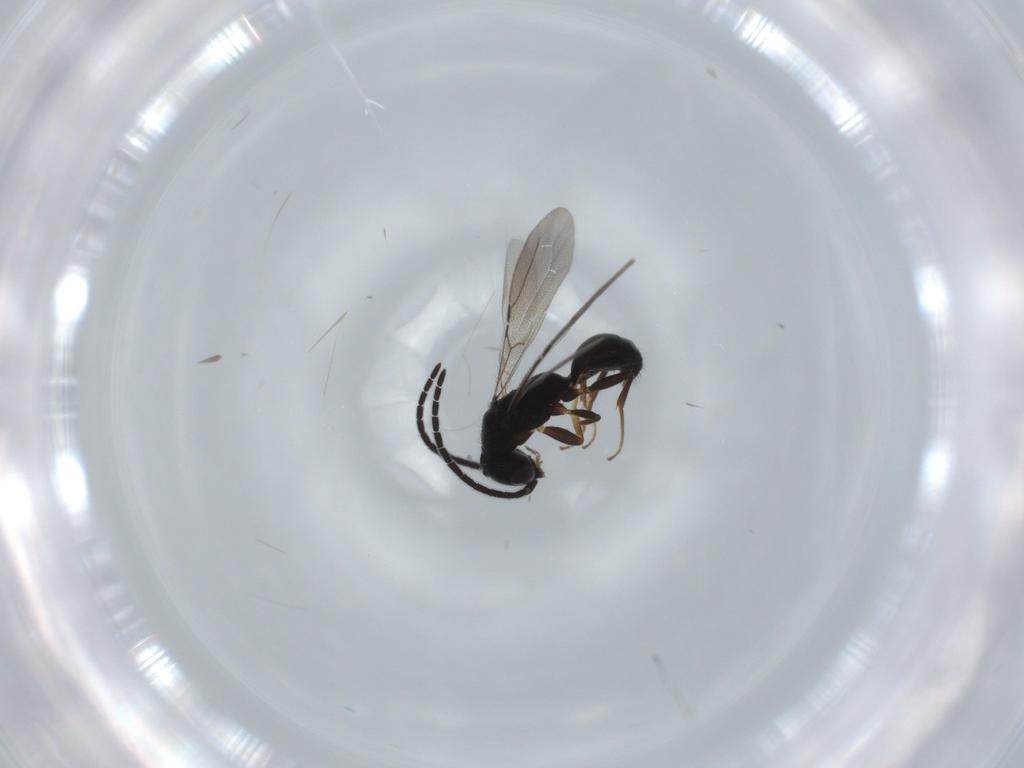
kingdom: Animalia
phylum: Arthropoda
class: Insecta
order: Hymenoptera
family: Bethylidae
